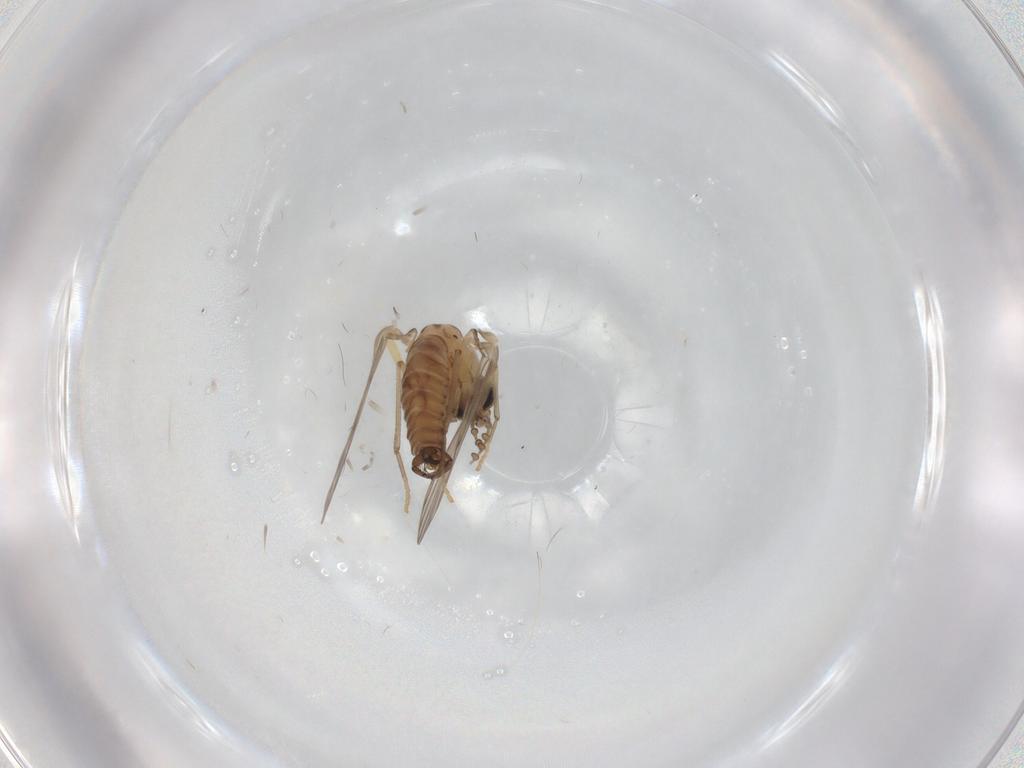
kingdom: Animalia
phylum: Arthropoda
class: Insecta
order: Diptera
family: Psychodidae
